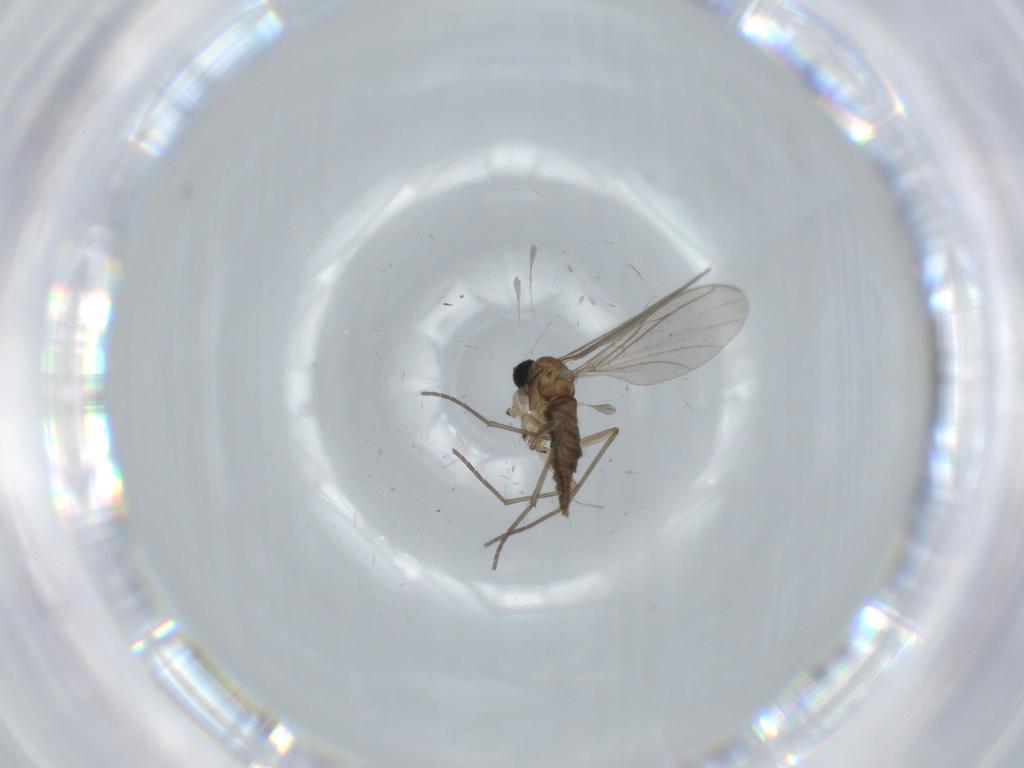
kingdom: Animalia
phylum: Arthropoda
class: Insecta
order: Diptera
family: Sciaridae
